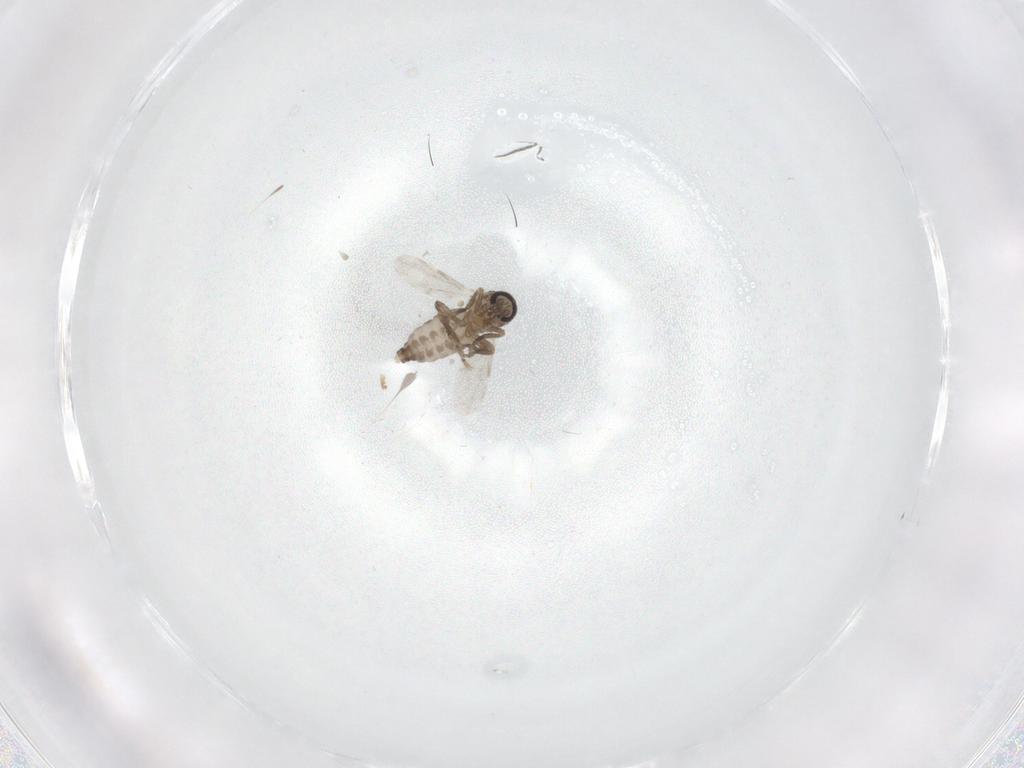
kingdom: Animalia
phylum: Arthropoda
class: Insecta
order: Diptera
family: Ceratopogonidae
